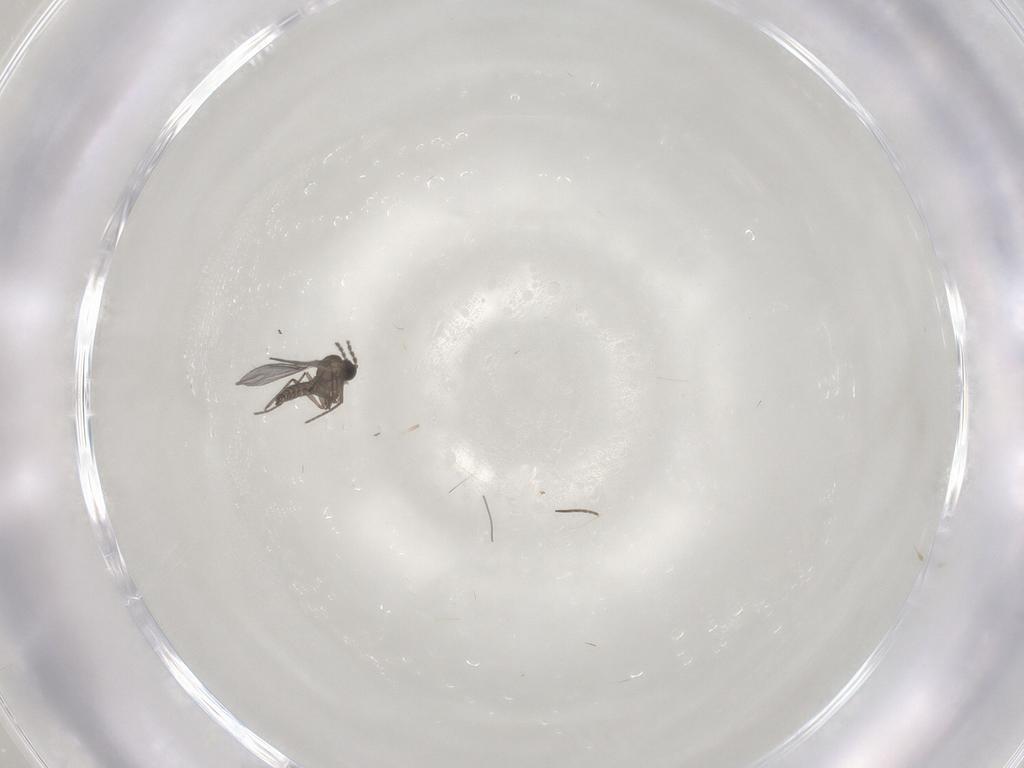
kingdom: Animalia
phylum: Arthropoda
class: Insecta
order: Diptera
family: Sciaridae
